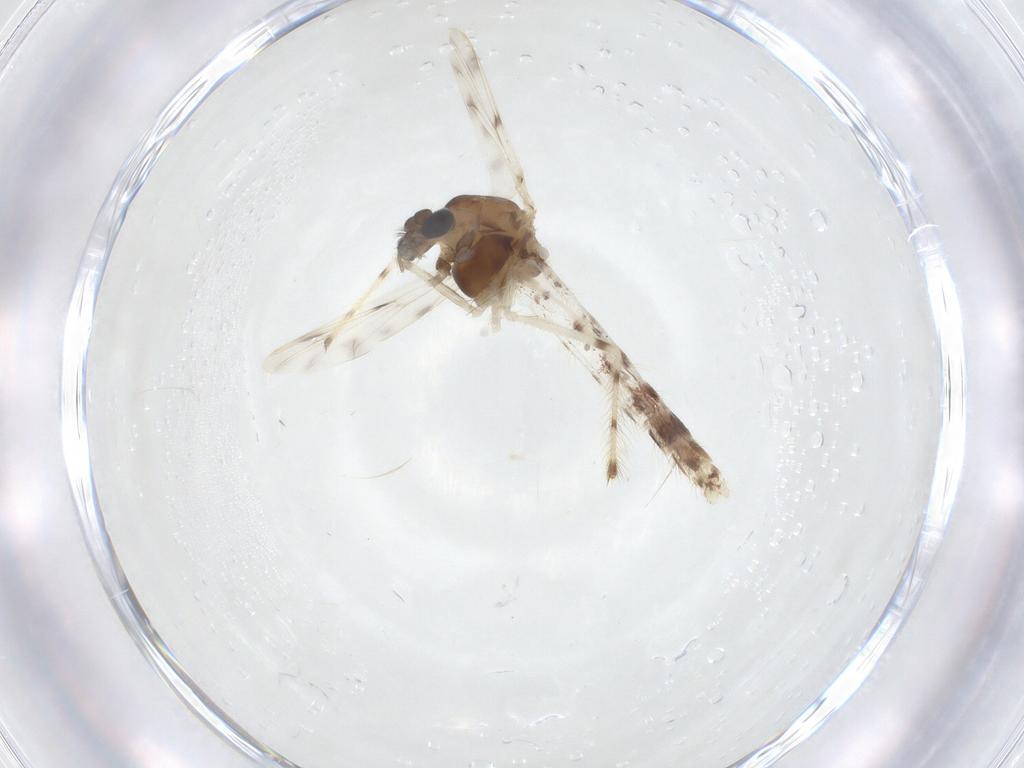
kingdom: Animalia
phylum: Arthropoda
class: Insecta
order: Diptera
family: Chironomidae
